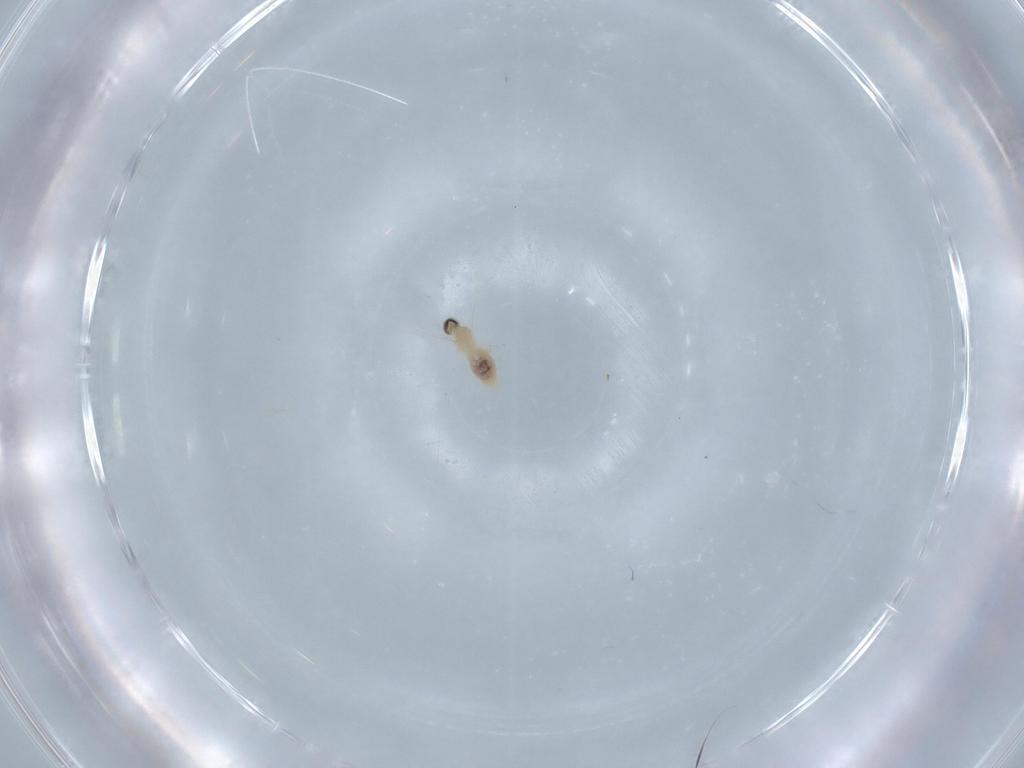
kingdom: Animalia
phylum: Arthropoda
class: Insecta
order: Diptera
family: Cecidomyiidae
